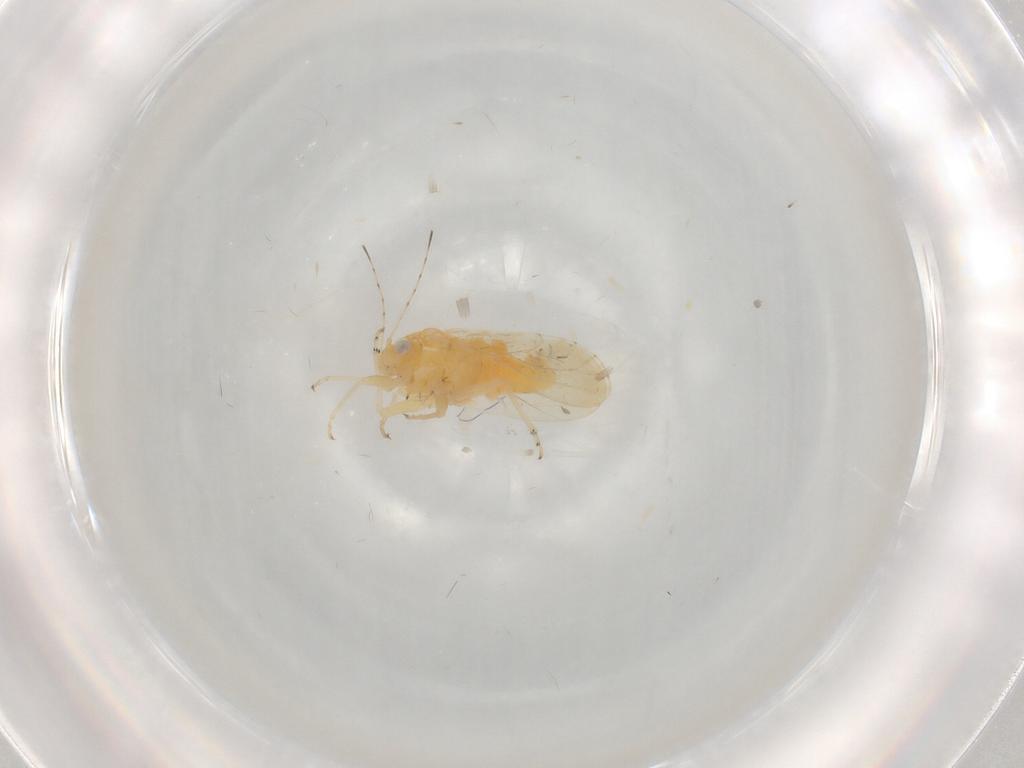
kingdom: Animalia
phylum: Arthropoda
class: Insecta
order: Hemiptera
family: Psyllidae
